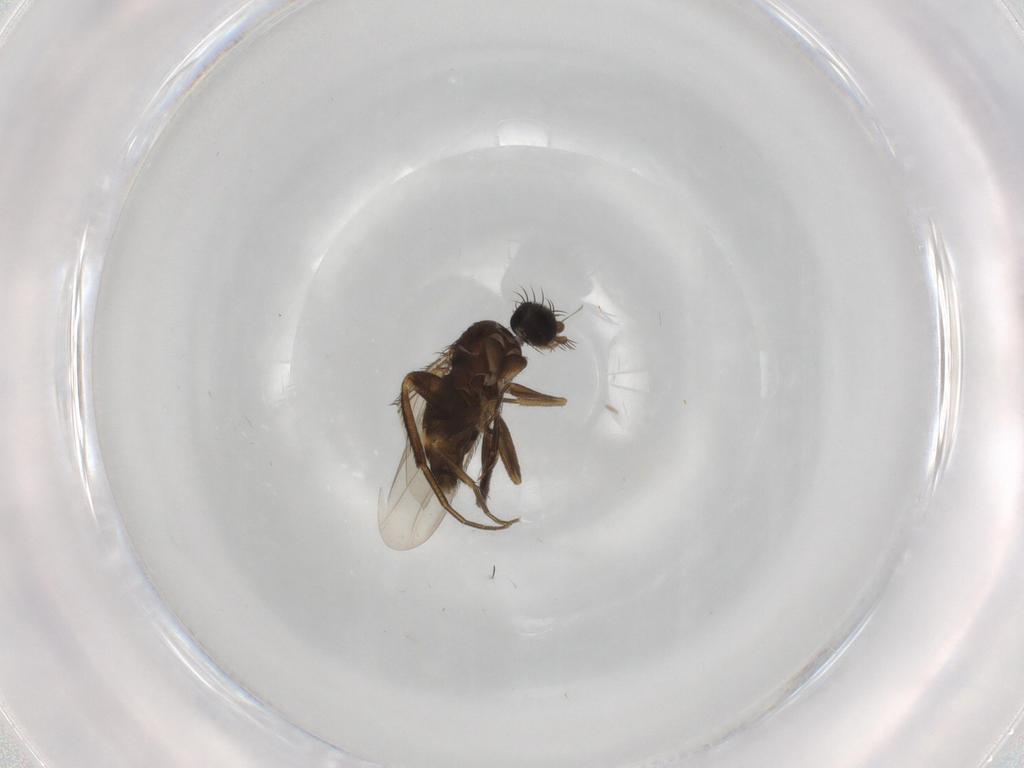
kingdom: Animalia
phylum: Arthropoda
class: Insecta
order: Diptera
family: Phoridae
